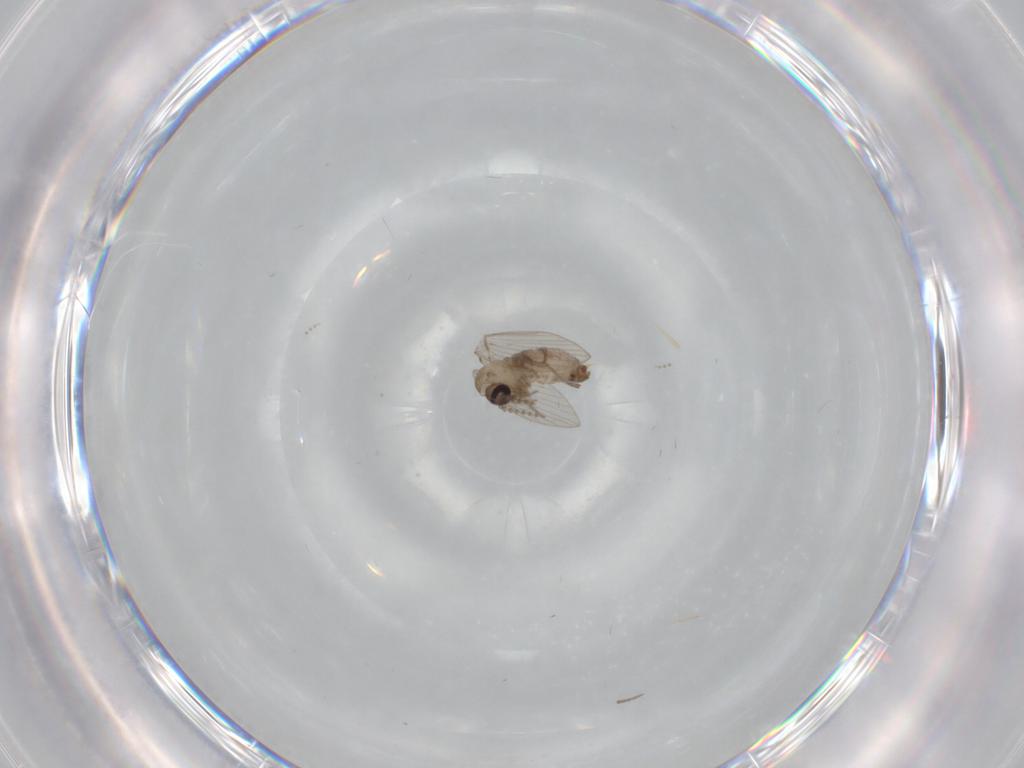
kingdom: Animalia
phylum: Arthropoda
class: Insecta
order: Diptera
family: Psychodidae
